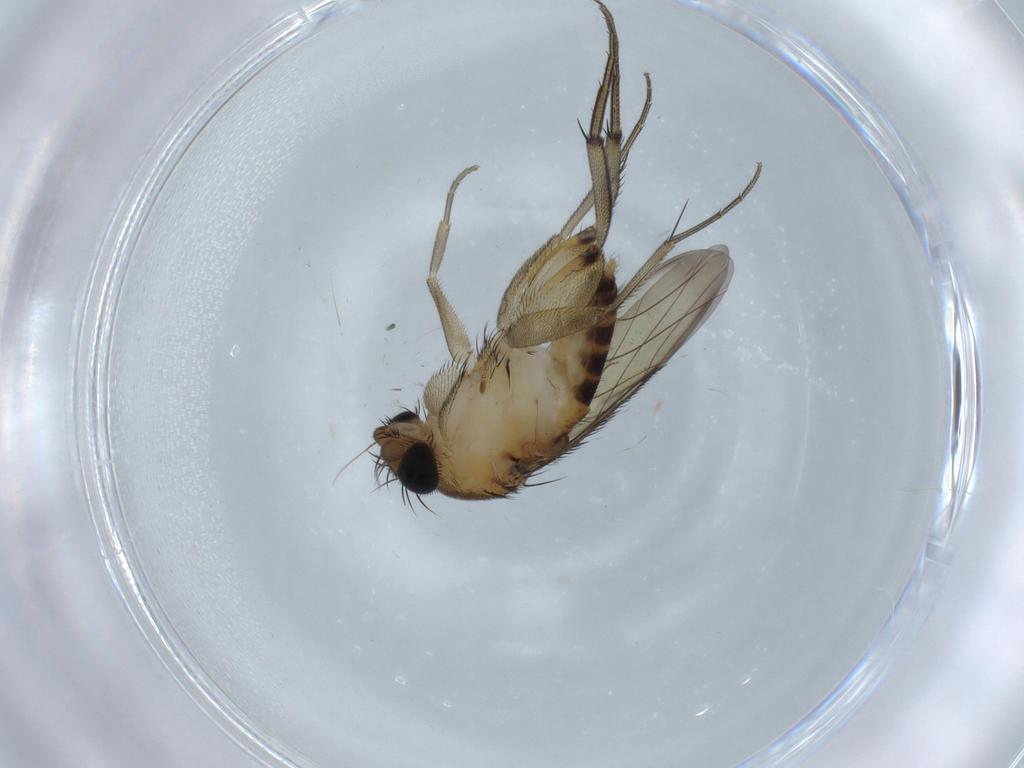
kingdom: Animalia
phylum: Arthropoda
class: Insecta
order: Diptera
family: Phoridae
